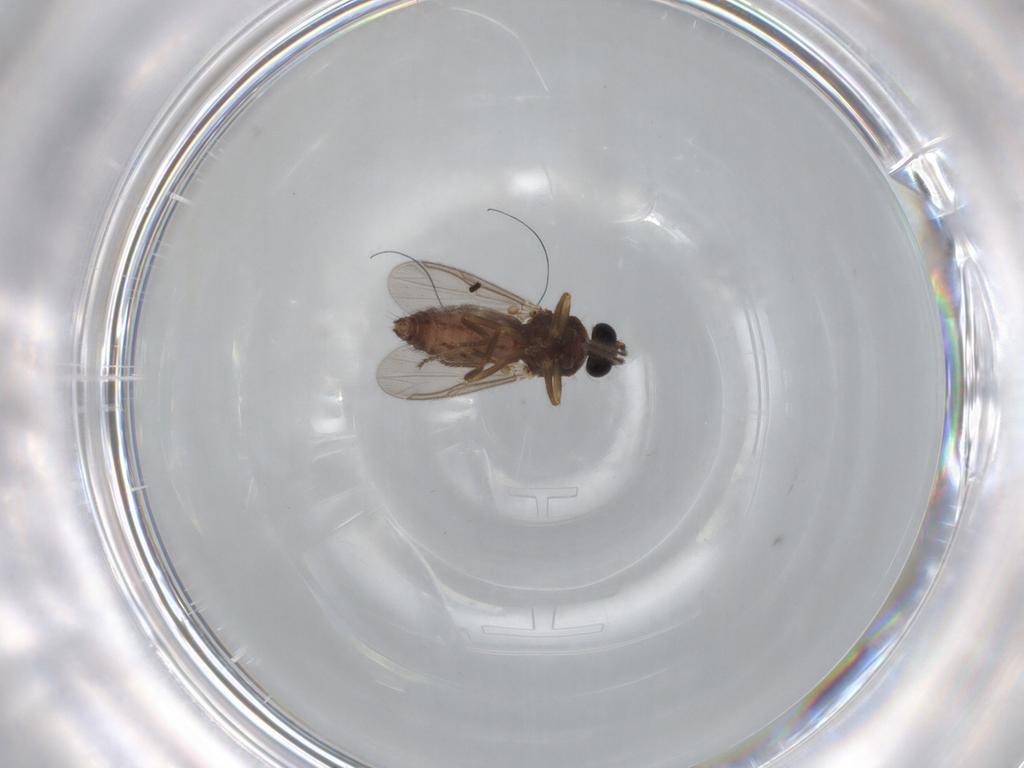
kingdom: Animalia
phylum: Arthropoda
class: Insecta
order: Diptera
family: Ceratopogonidae
